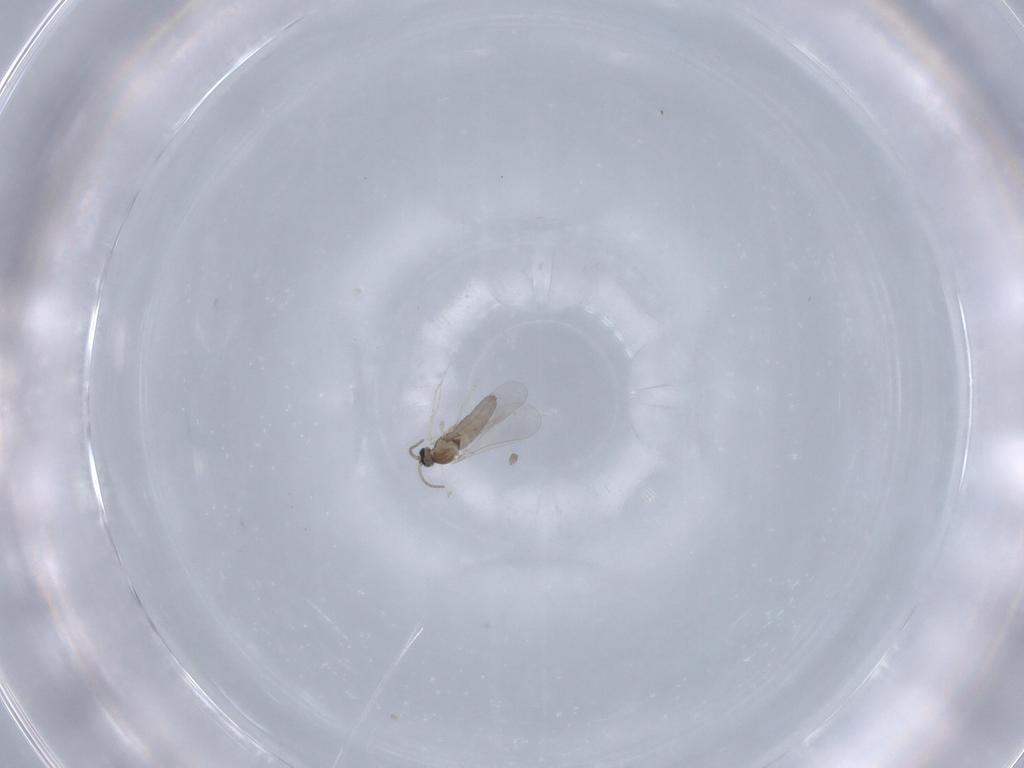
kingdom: Animalia
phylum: Arthropoda
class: Insecta
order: Diptera
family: Cecidomyiidae
